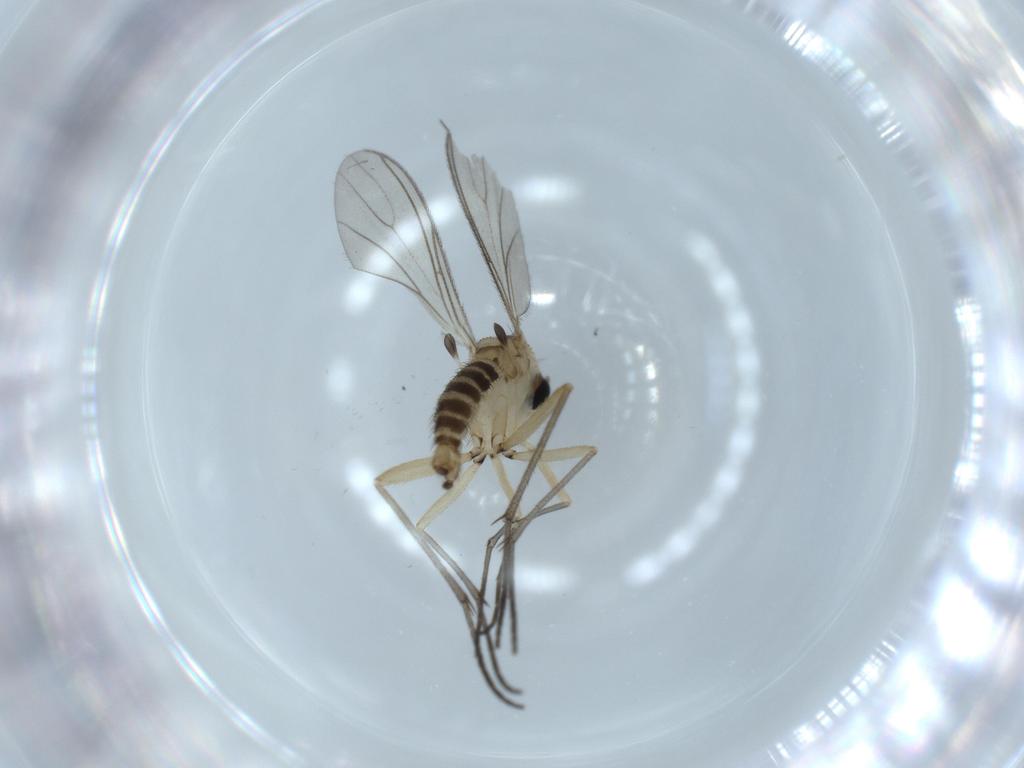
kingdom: Animalia
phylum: Arthropoda
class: Insecta
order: Diptera
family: Sciaridae
